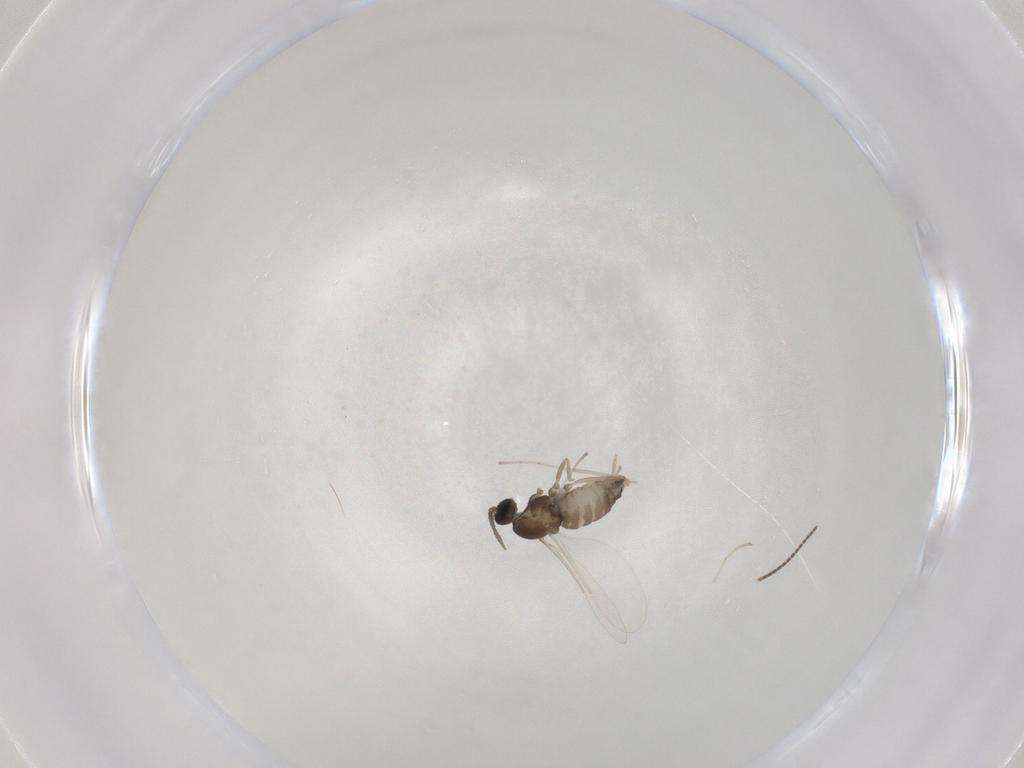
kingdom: Animalia
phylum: Arthropoda
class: Insecta
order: Diptera
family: Cecidomyiidae
